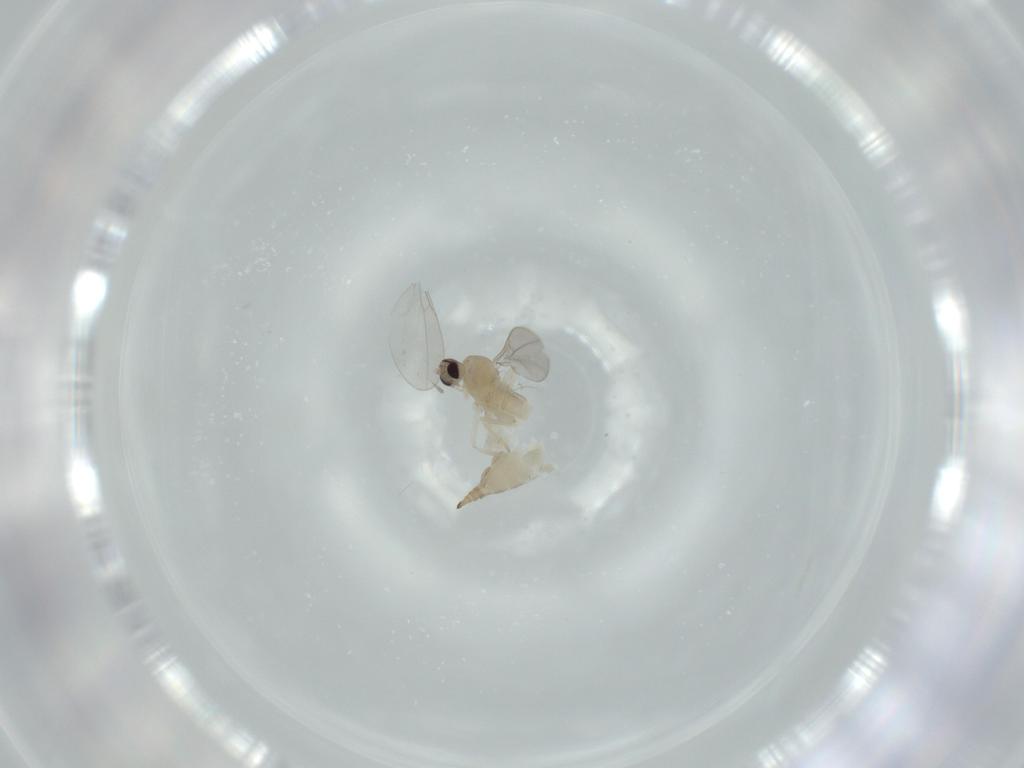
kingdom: Animalia
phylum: Arthropoda
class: Insecta
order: Diptera
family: Cecidomyiidae
